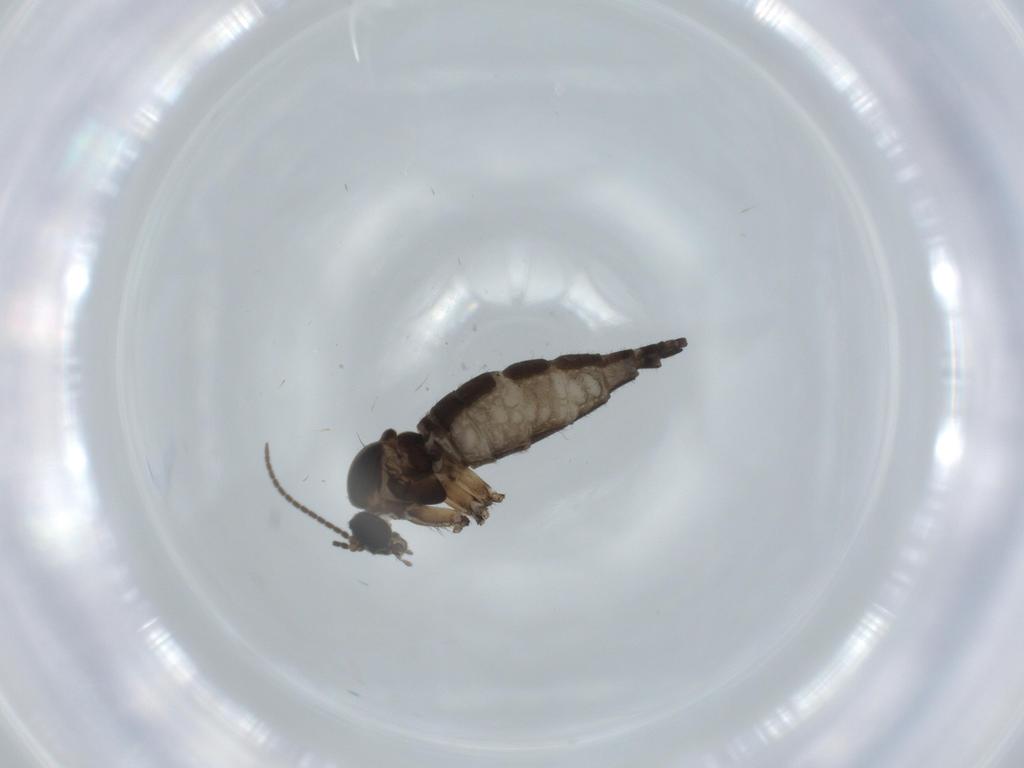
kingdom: Animalia
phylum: Arthropoda
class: Insecta
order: Diptera
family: Sciaridae
